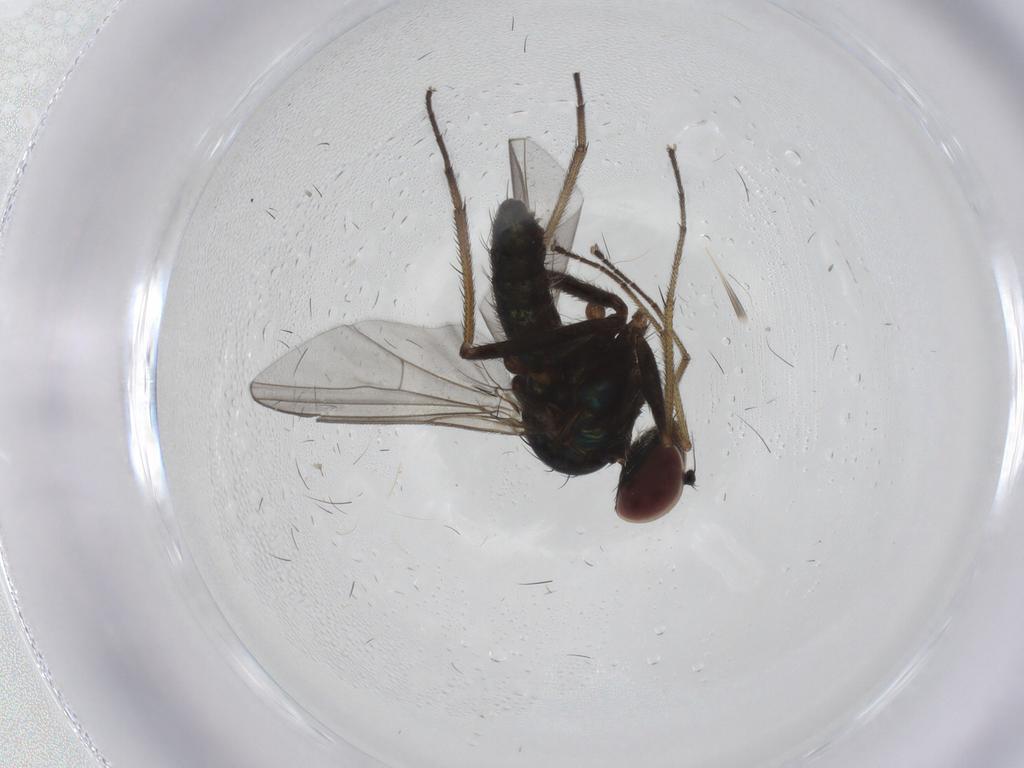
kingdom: Animalia
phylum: Arthropoda
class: Insecta
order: Diptera
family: Dolichopodidae
